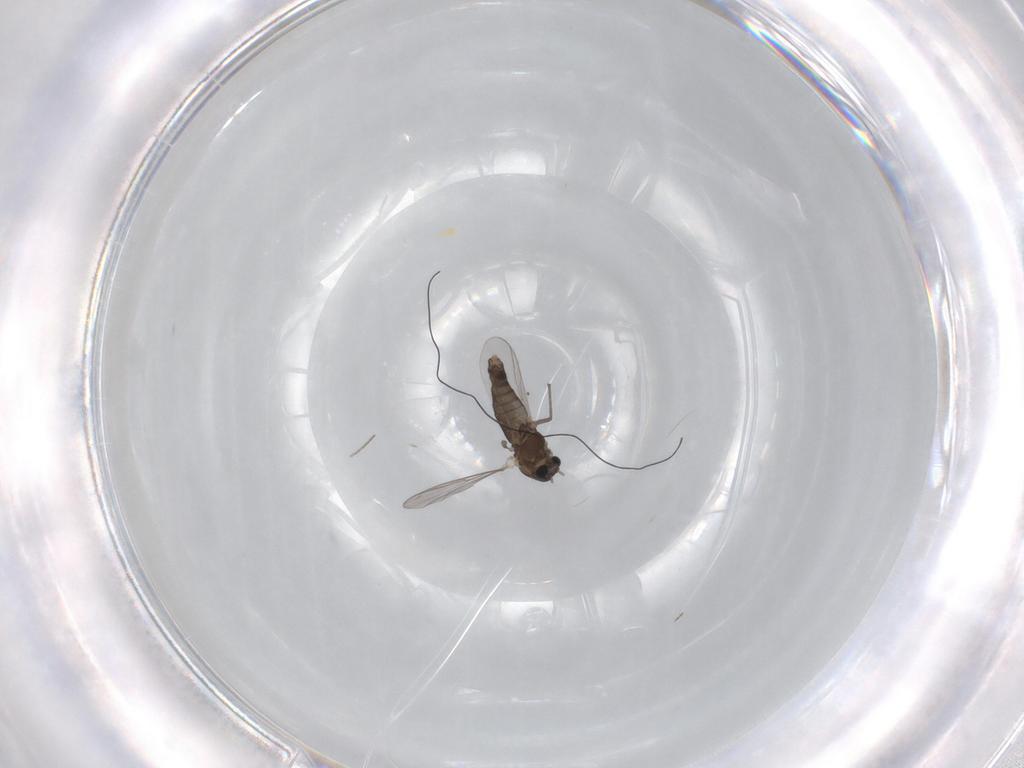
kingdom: Animalia
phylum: Arthropoda
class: Insecta
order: Diptera
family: Chironomidae
